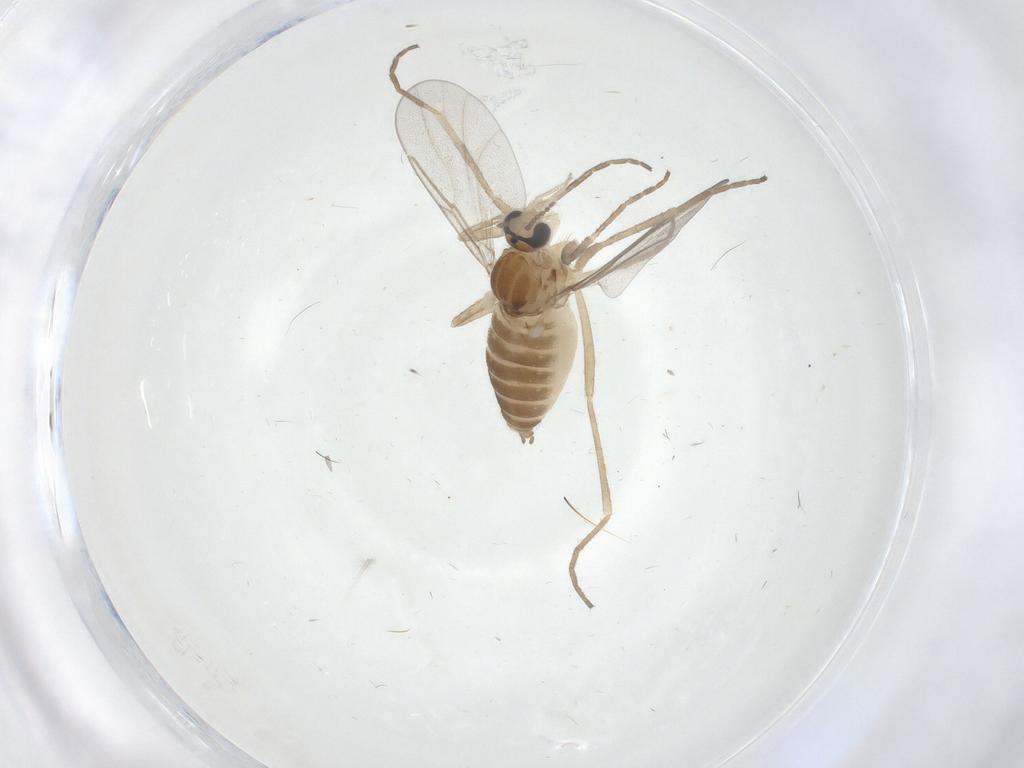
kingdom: Animalia
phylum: Arthropoda
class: Insecta
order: Diptera
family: Cecidomyiidae
